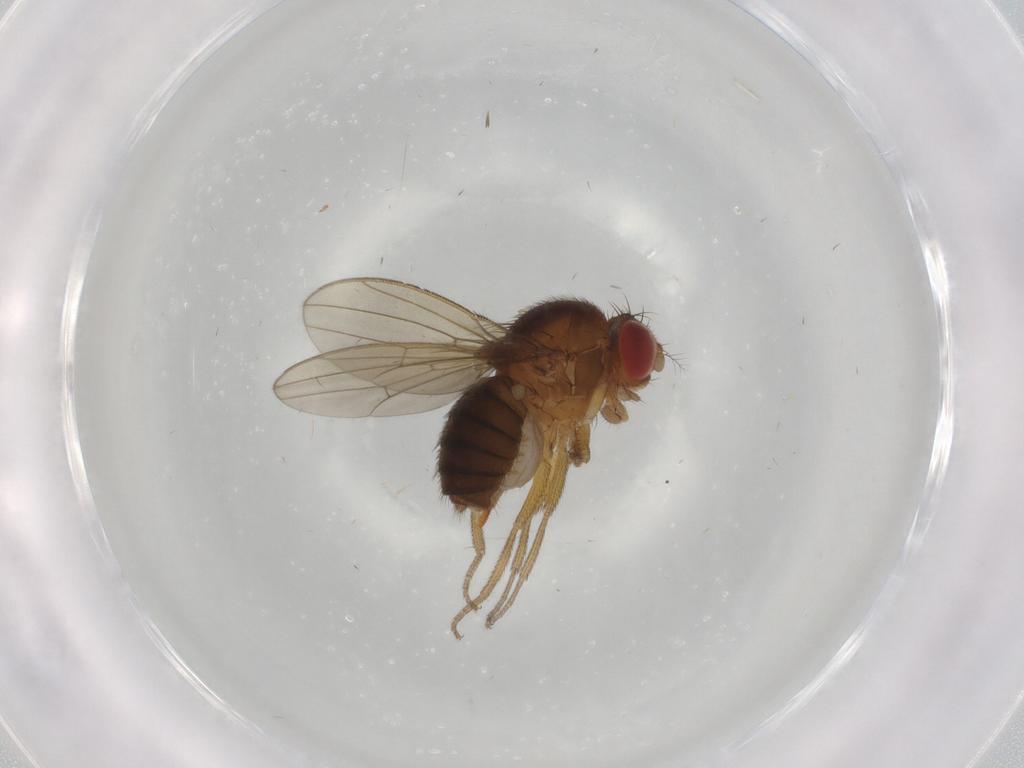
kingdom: Animalia
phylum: Arthropoda
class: Insecta
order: Diptera
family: Drosophilidae
